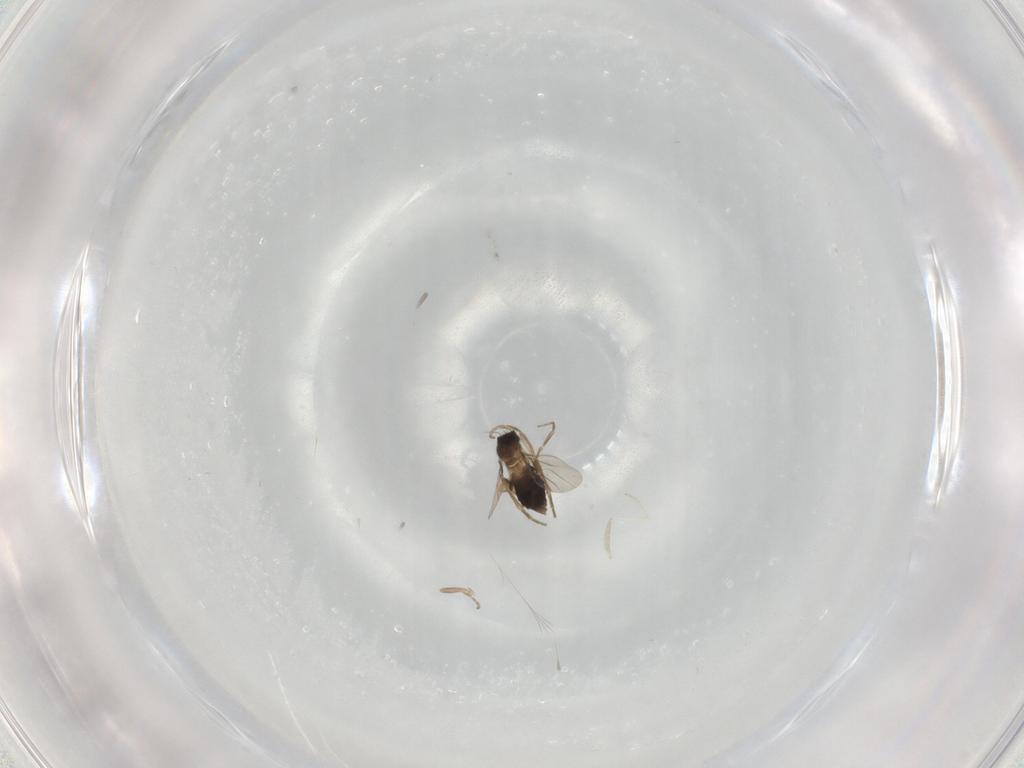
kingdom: Animalia
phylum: Arthropoda
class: Insecta
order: Diptera
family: Phoridae
